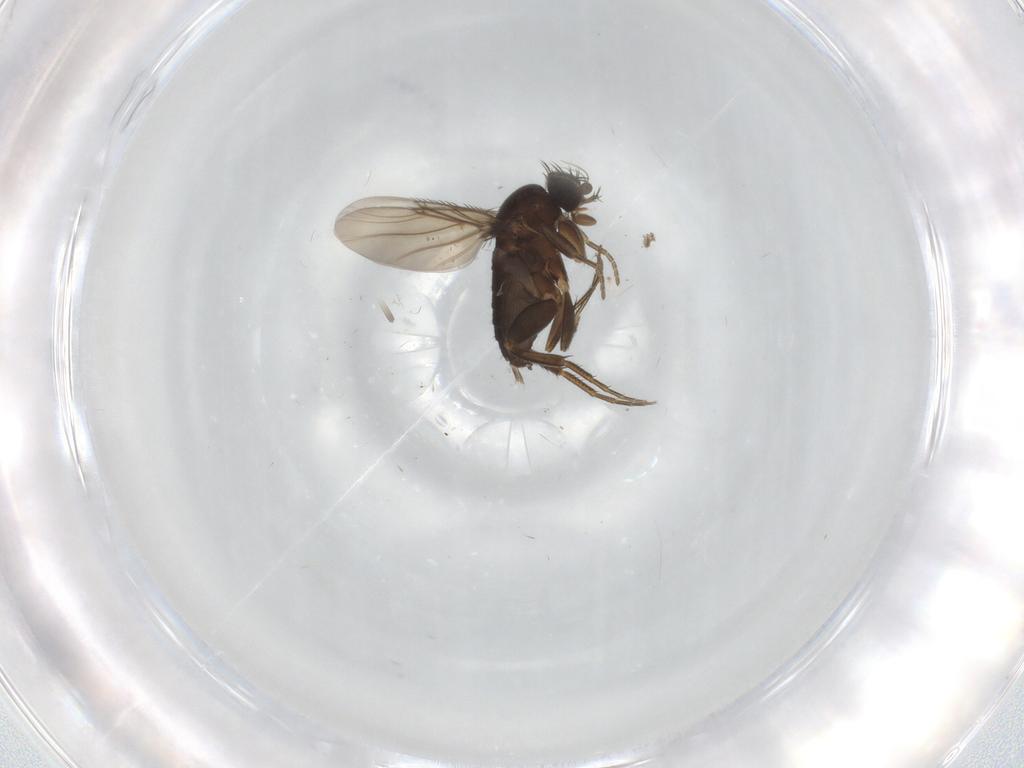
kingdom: Animalia
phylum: Arthropoda
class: Insecta
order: Diptera
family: Phoridae
